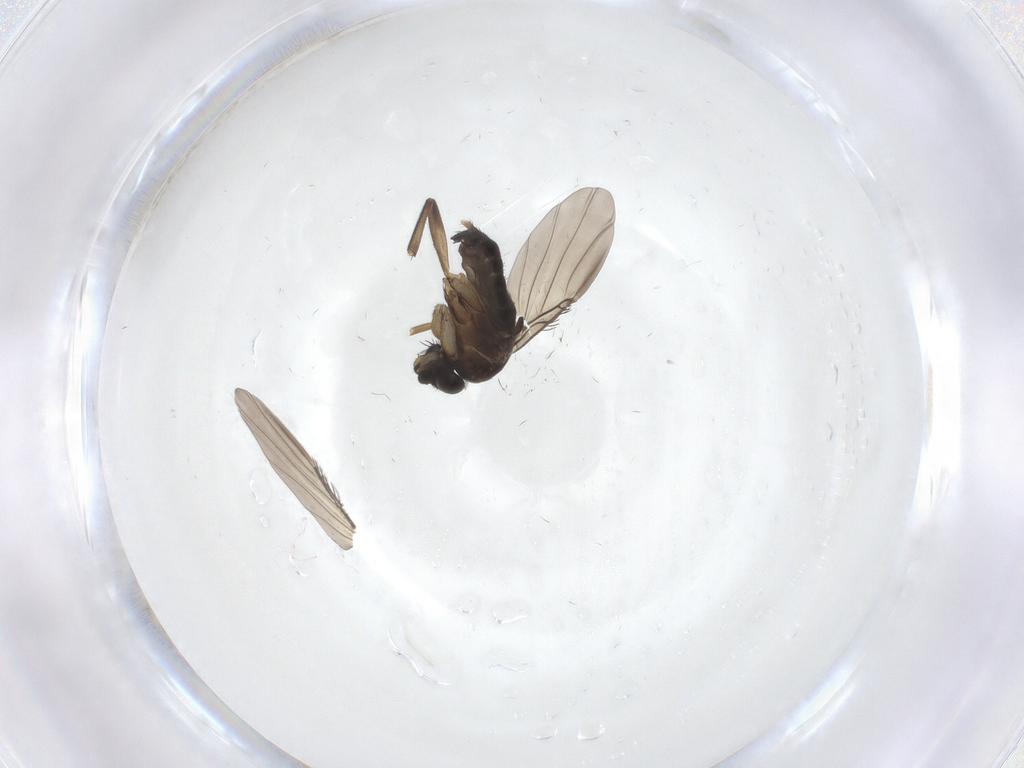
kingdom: Animalia
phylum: Arthropoda
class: Insecta
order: Diptera
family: Phoridae
